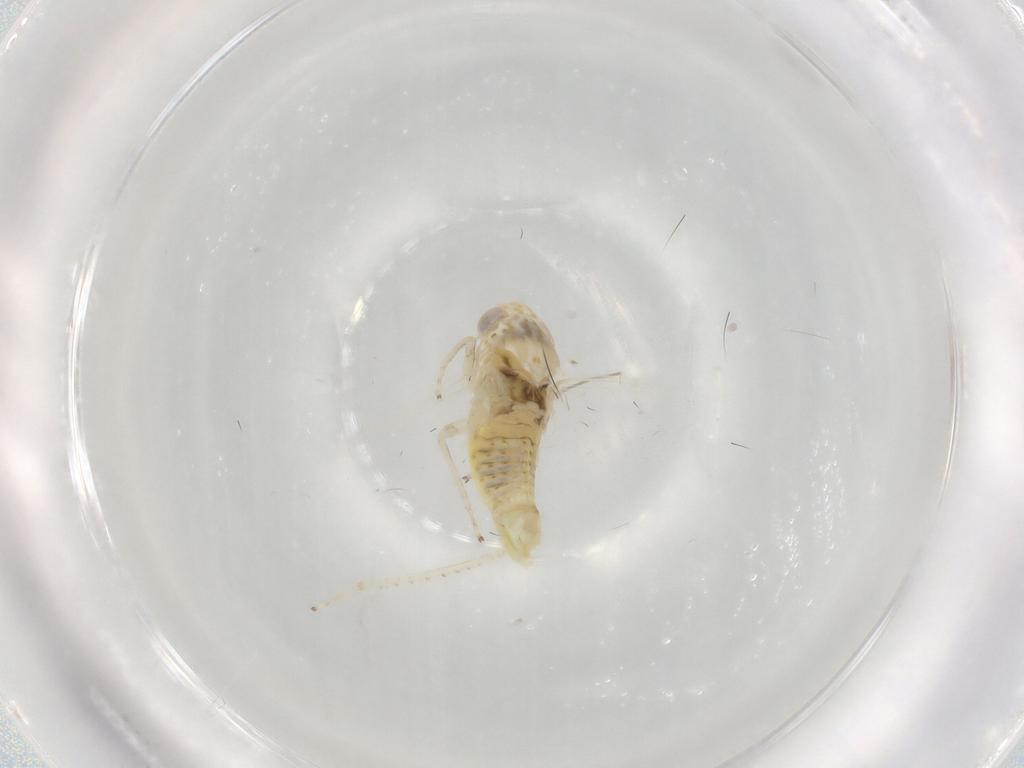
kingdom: Animalia
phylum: Arthropoda
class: Insecta
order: Hemiptera
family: Cicadellidae
